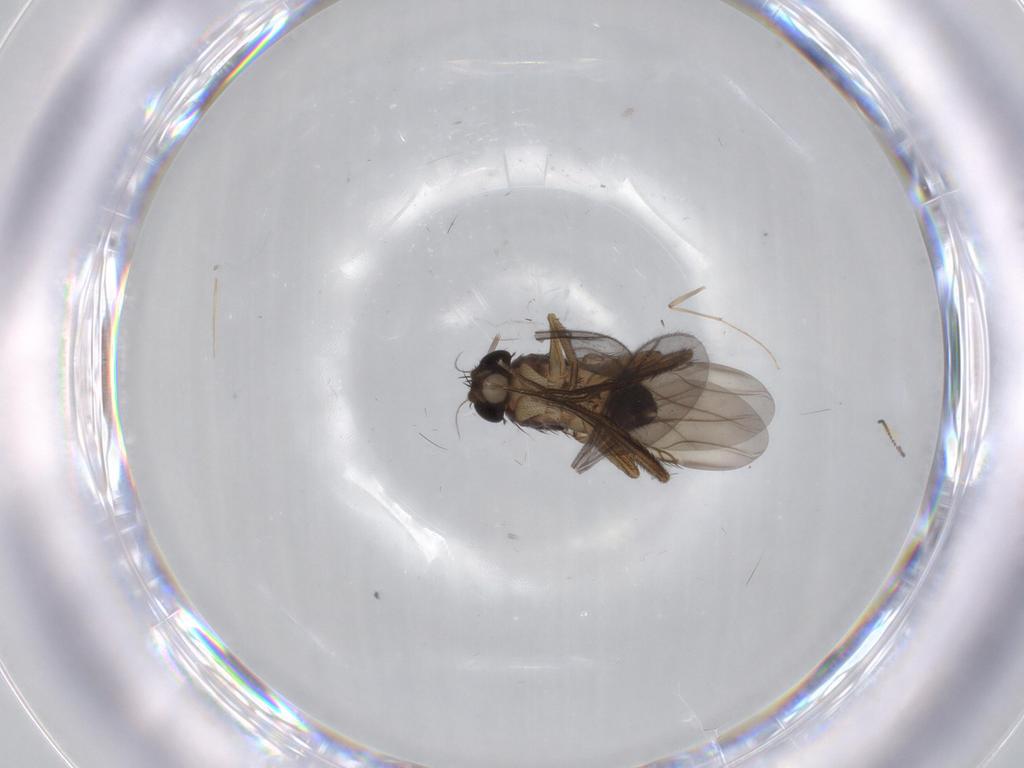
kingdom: Animalia
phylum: Arthropoda
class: Insecta
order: Diptera
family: Phoridae
